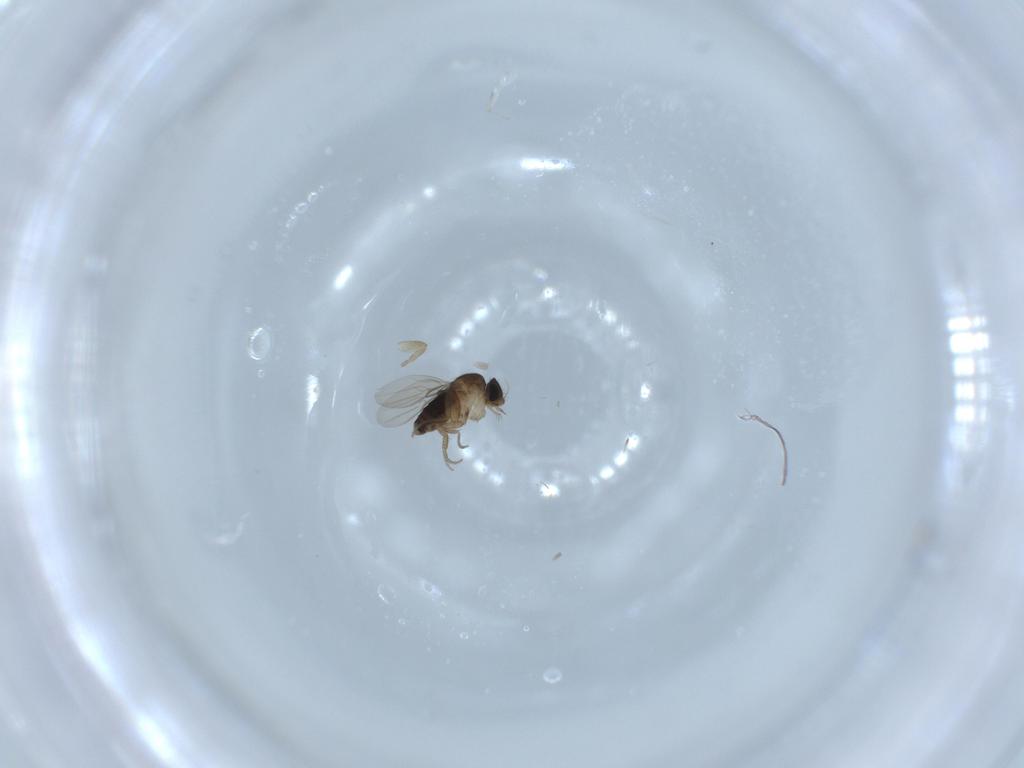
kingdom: Animalia
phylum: Arthropoda
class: Insecta
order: Diptera
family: Phoridae
